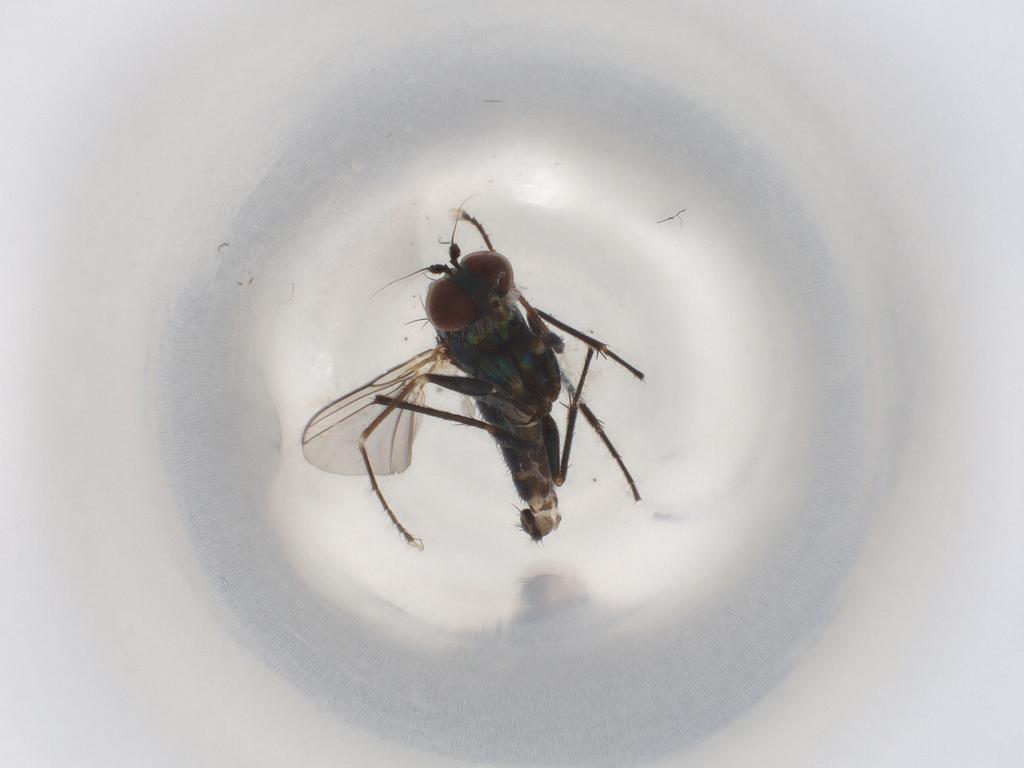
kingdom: Animalia
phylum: Arthropoda
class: Insecta
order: Diptera
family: Dolichopodidae
